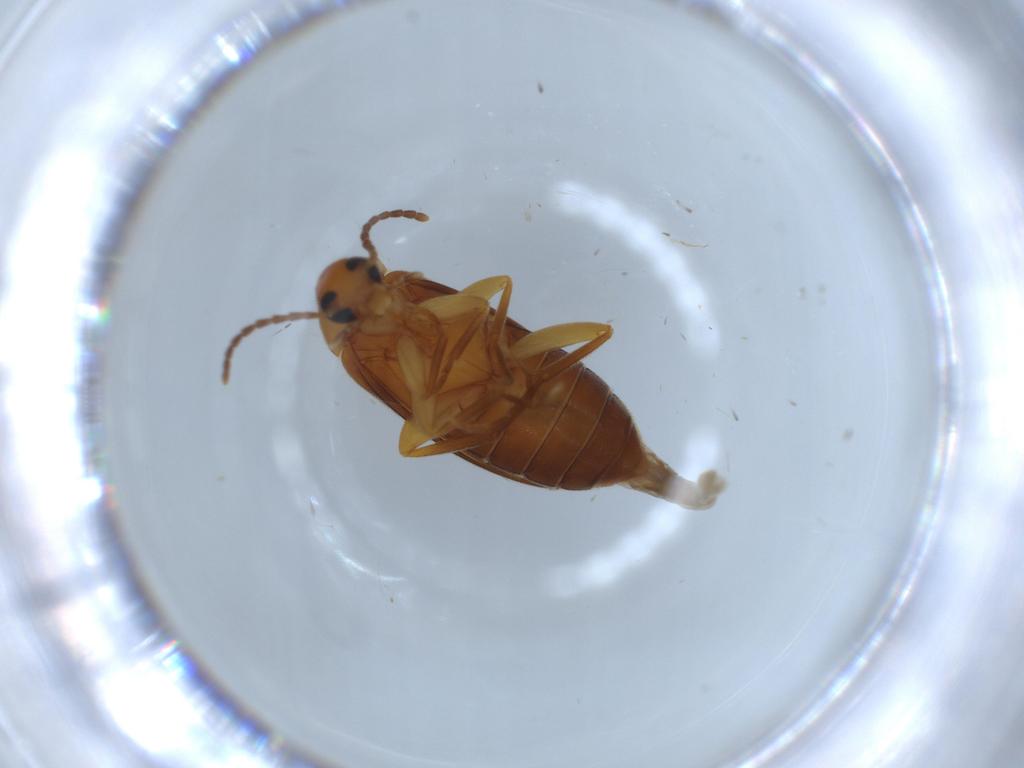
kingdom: Animalia
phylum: Arthropoda
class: Insecta
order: Coleoptera
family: Scraptiidae
